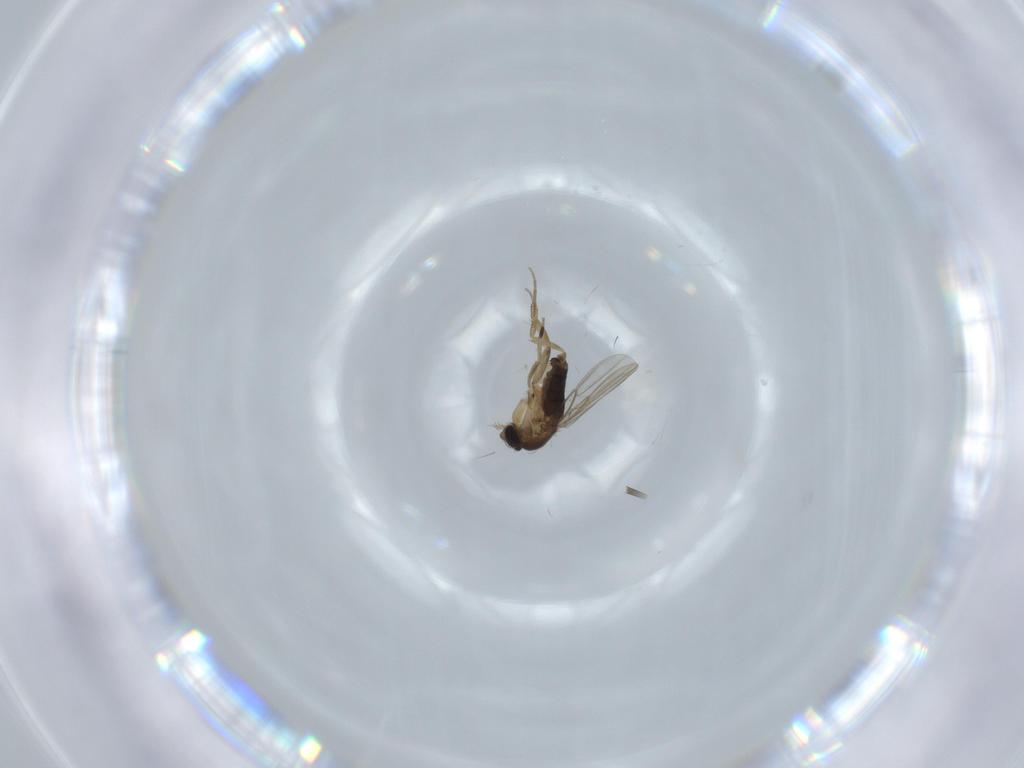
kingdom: Animalia
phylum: Arthropoda
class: Insecta
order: Diptera
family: Phoridae
